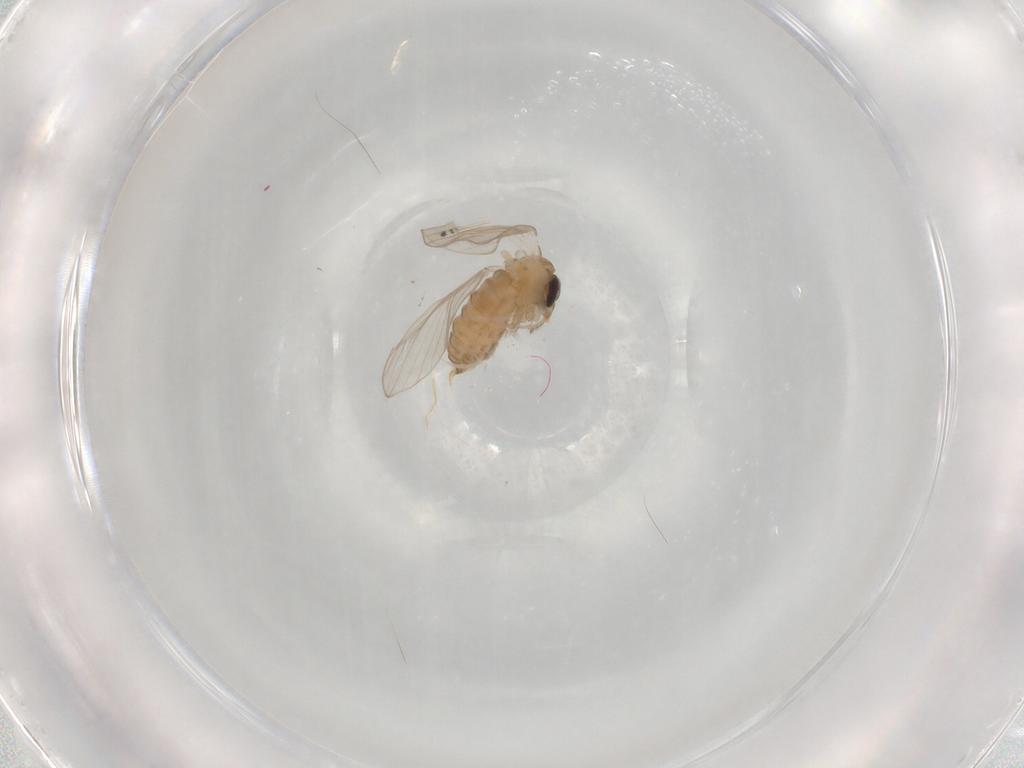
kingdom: Animalia
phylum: Arthropoda
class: Insecta
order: Diptera
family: Psychodidae
